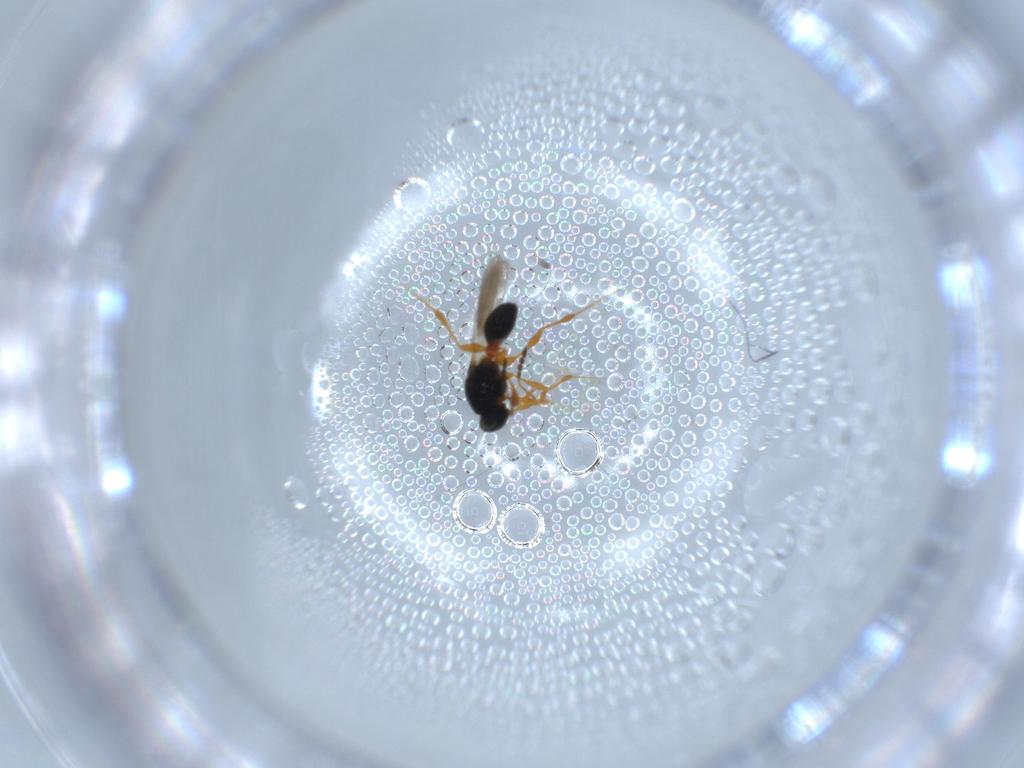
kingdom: Animalia
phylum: Arthropoda
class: Insecta
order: Hymenoptera
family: Platygastridae
